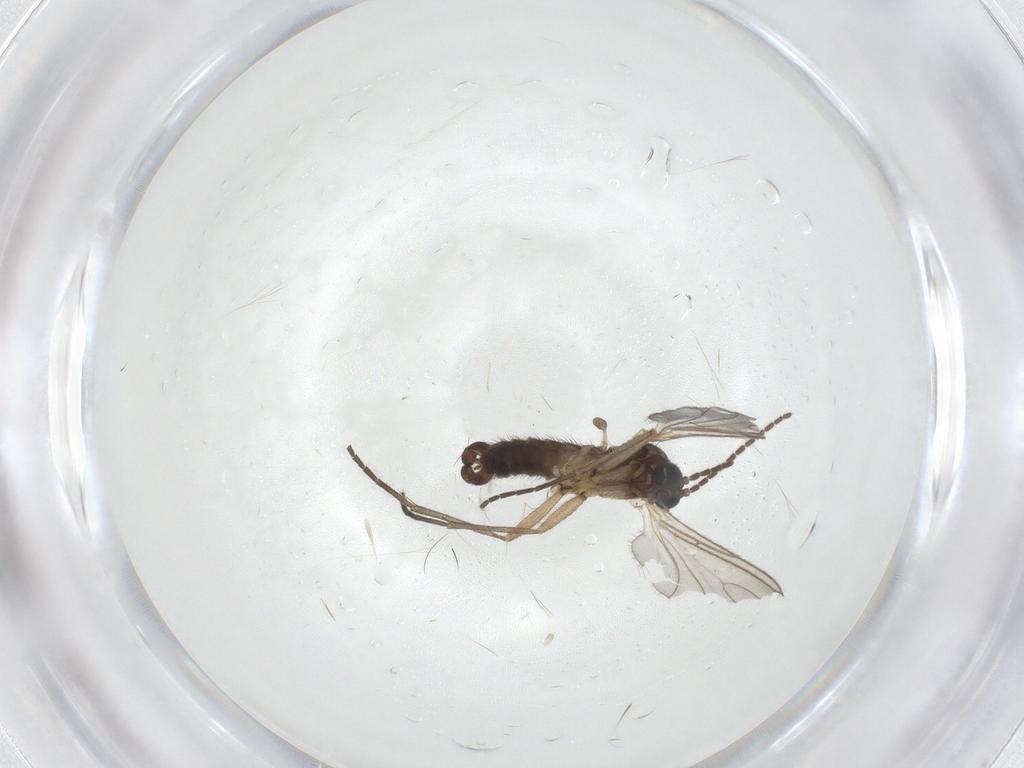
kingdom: Animalia
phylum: Arthropoda
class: Insecta
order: Diptera
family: Sciaridae
